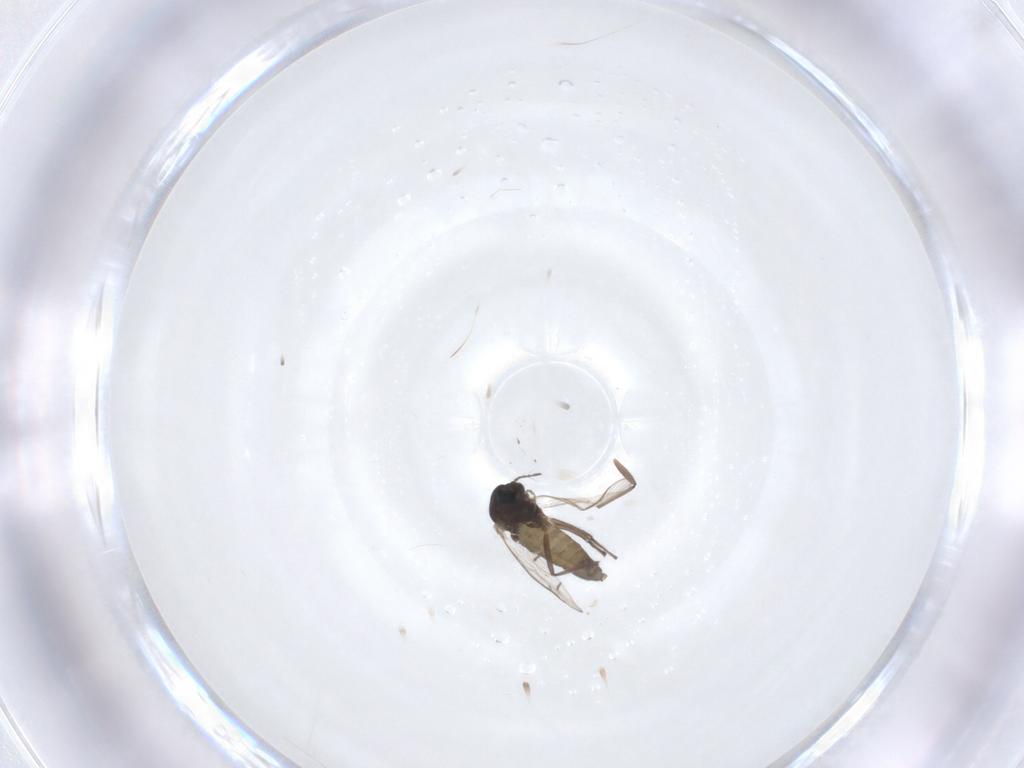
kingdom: Animalia
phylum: Arthropoda
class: Insecta
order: Diptera
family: Chironomidae
